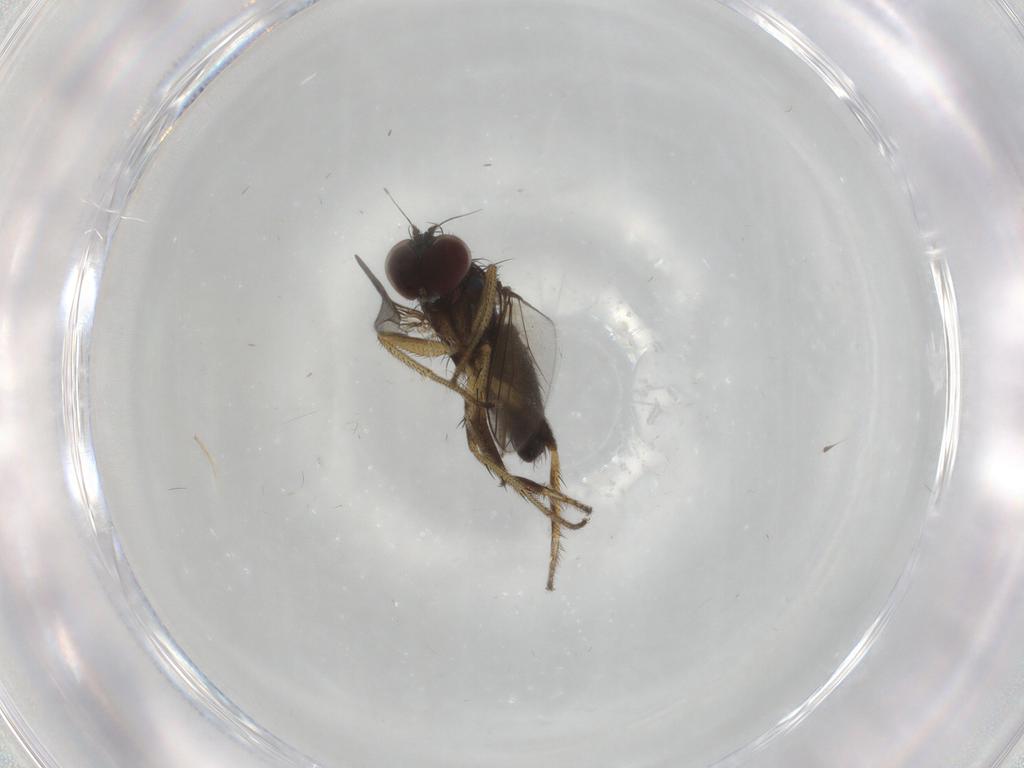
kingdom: Animalia
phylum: Arthropoda
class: Insecta
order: Diptera
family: Dolichopodidae
